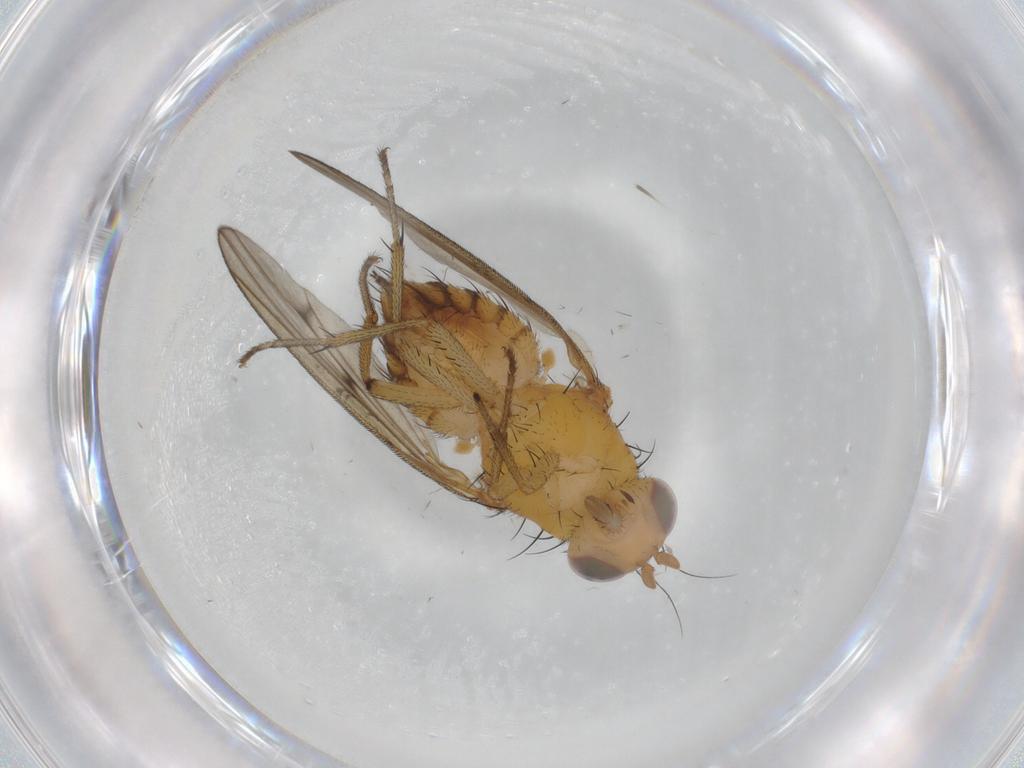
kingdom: Animalia
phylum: Arthropoda
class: Insecta
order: Diptera
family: Lauxaniidae
